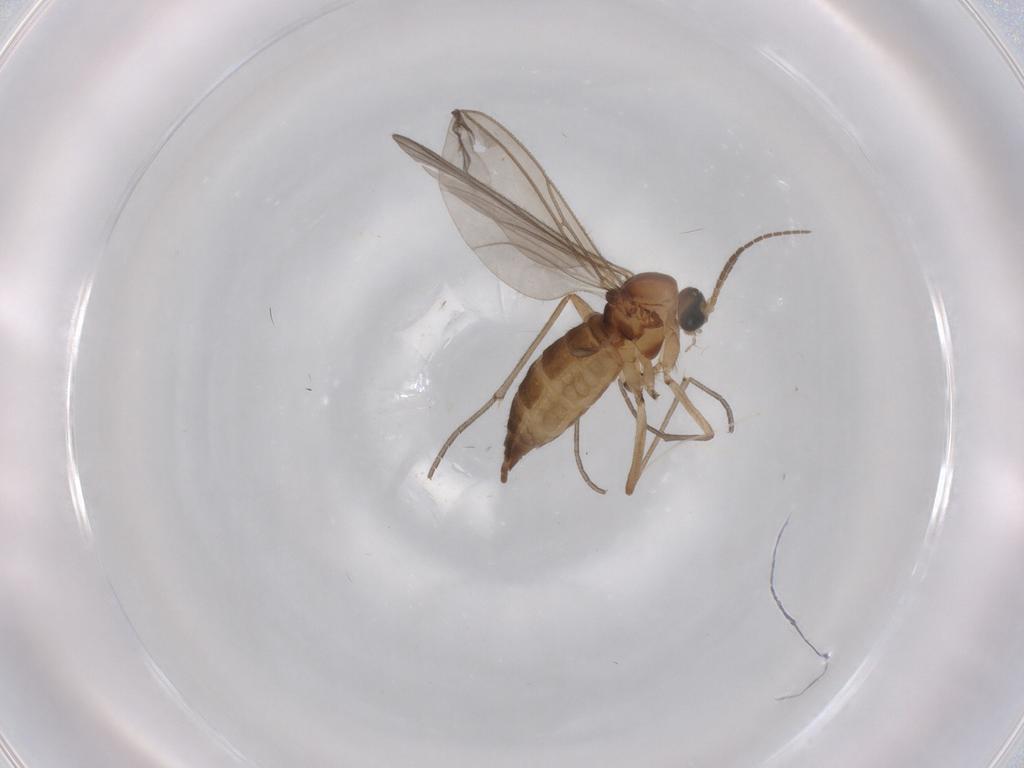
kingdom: Animalia
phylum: Arthropoda
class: Insecta
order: Diptera
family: Sciaridae
